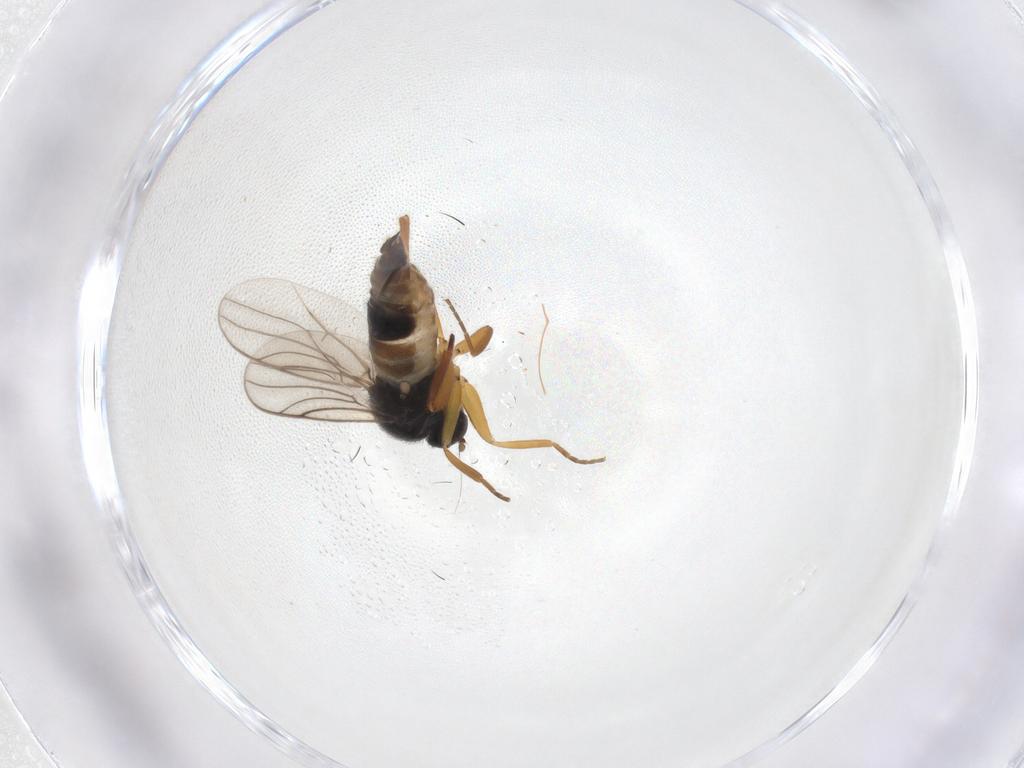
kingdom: Animalia
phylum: Arthropoda
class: Insecta
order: Diptera
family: Hybotidae
